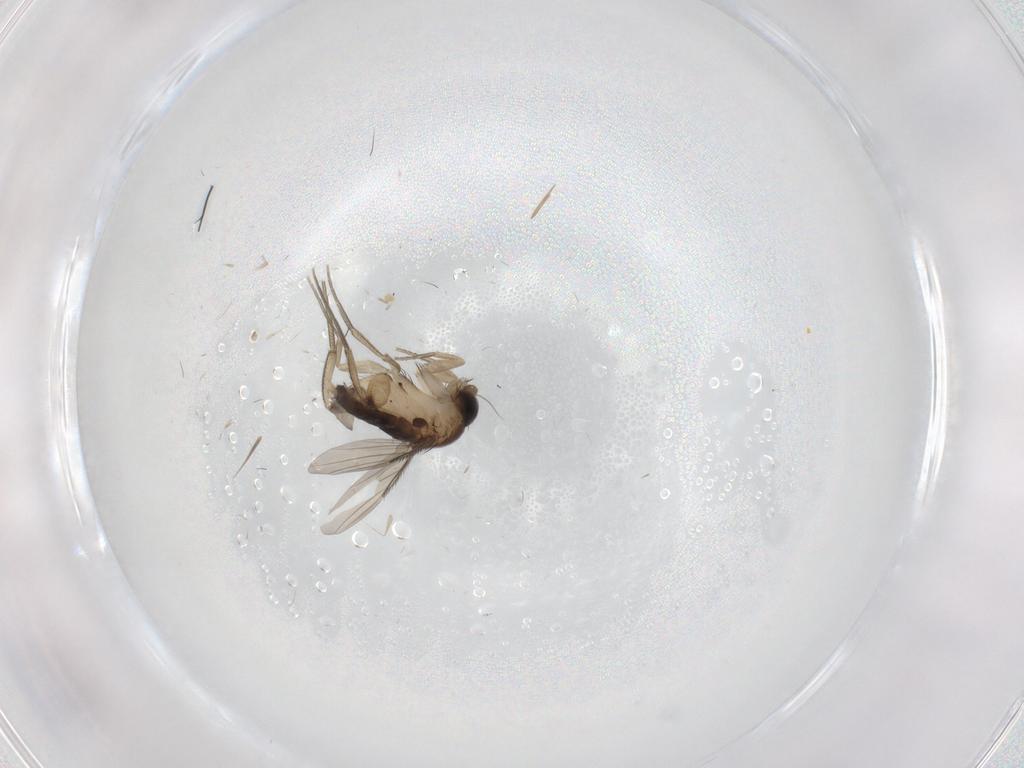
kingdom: Animalia
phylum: Arthropoda
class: Insecta
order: Diptera
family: Phoridae
